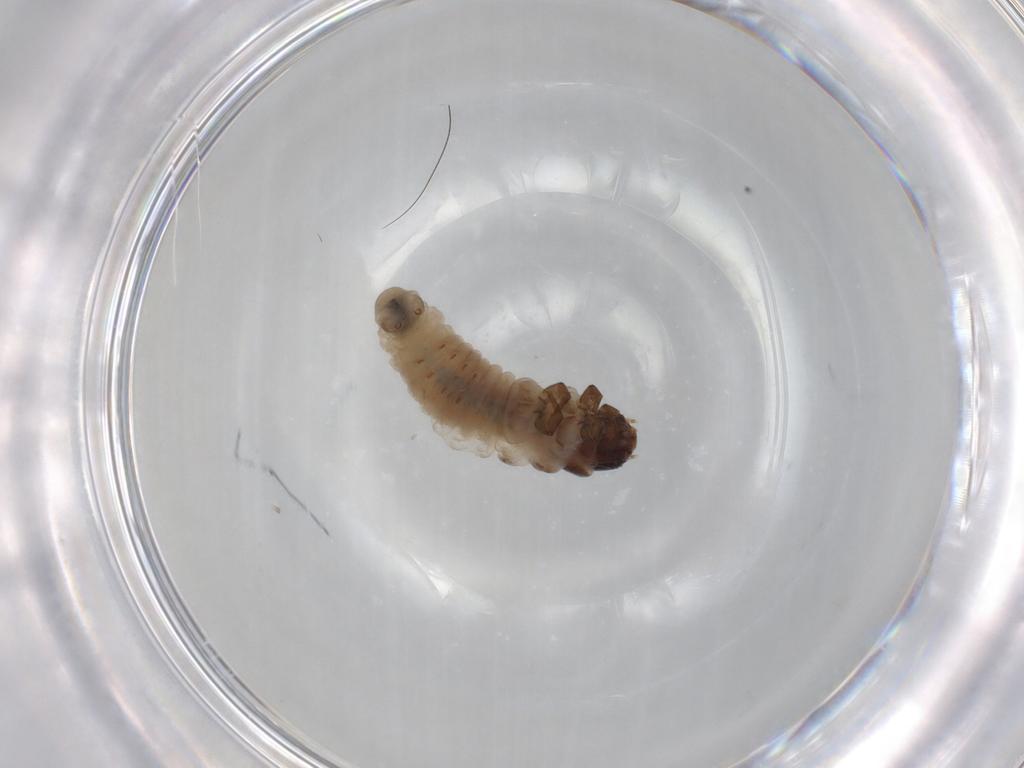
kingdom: Animalia
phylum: Arthropoda
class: Insecta
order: Lepidoptera
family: Psychidae
